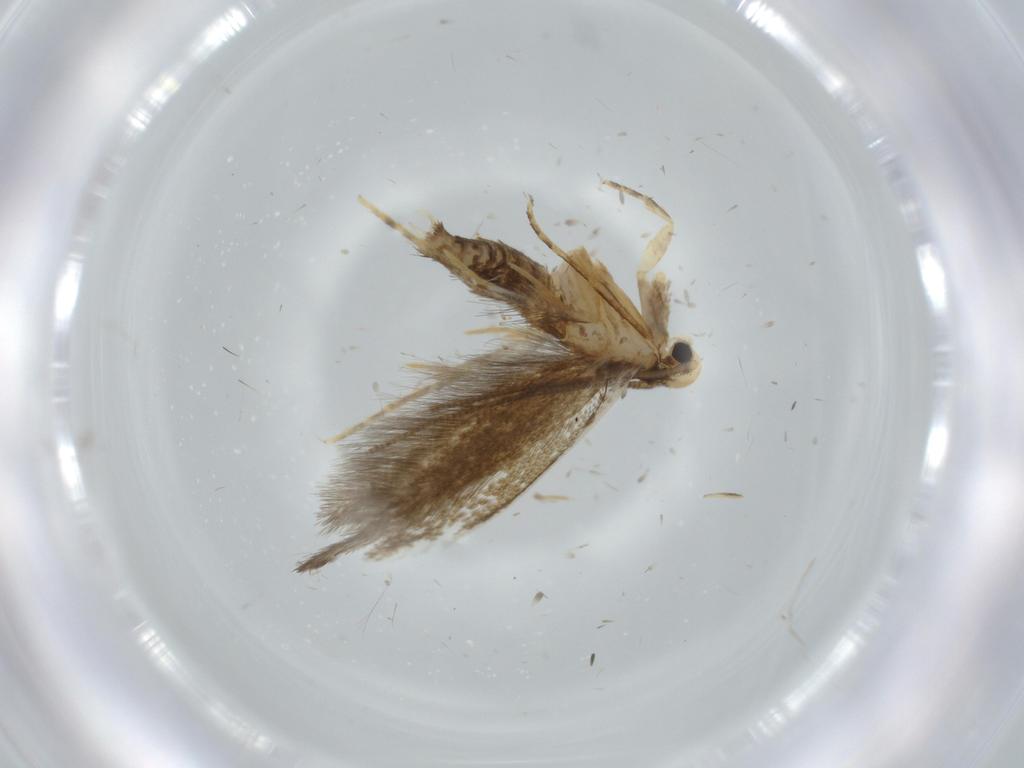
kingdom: Animalia
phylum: Arthropoda
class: Insecta
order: Lepidoptera
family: Tineidae
